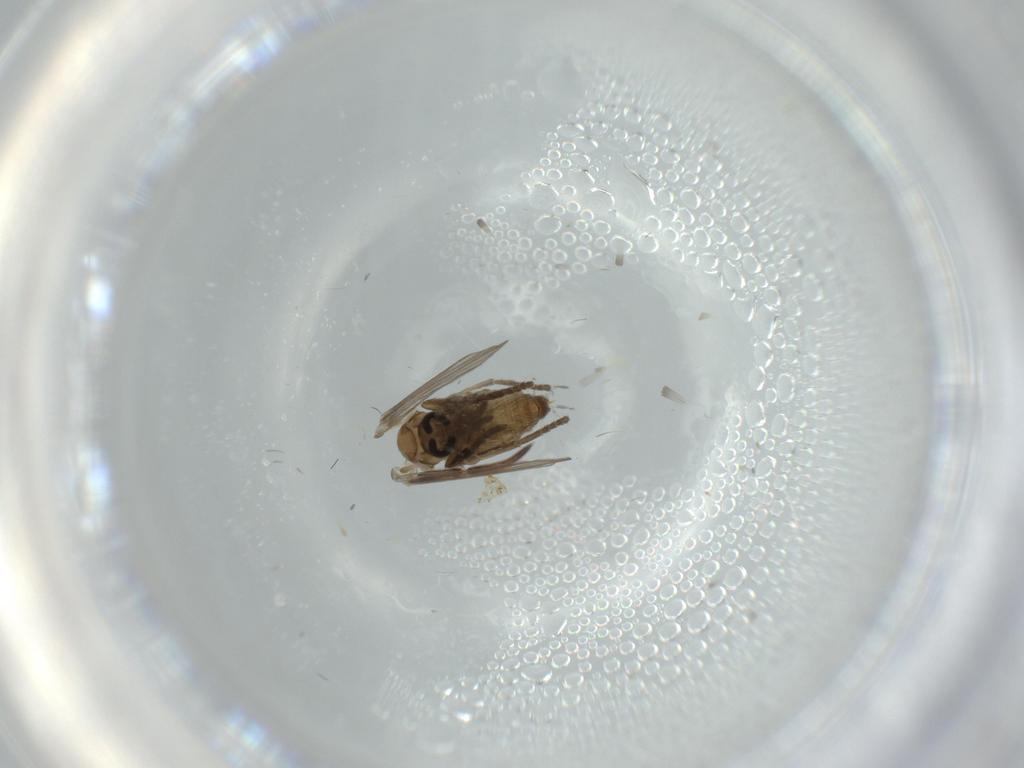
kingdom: Animalia
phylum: Arthropoda
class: Insecta
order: Diptera
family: Psychodidae
